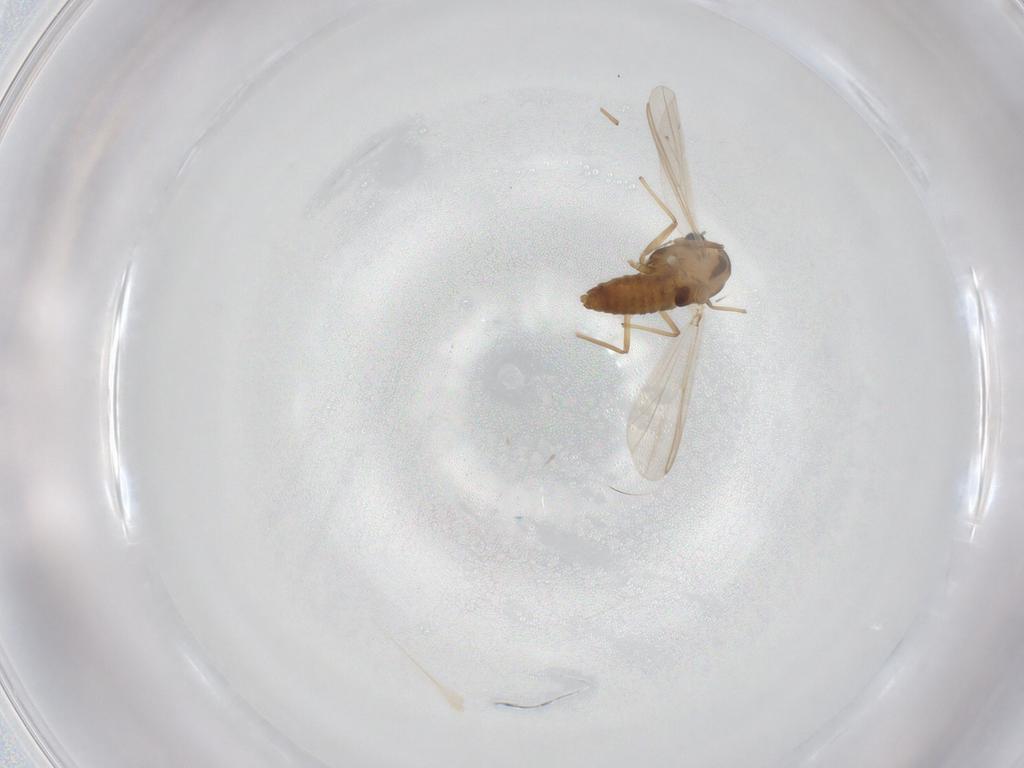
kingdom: Animalia
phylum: Arthropoda
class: Insecta
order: Diptera
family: Chironomidae
